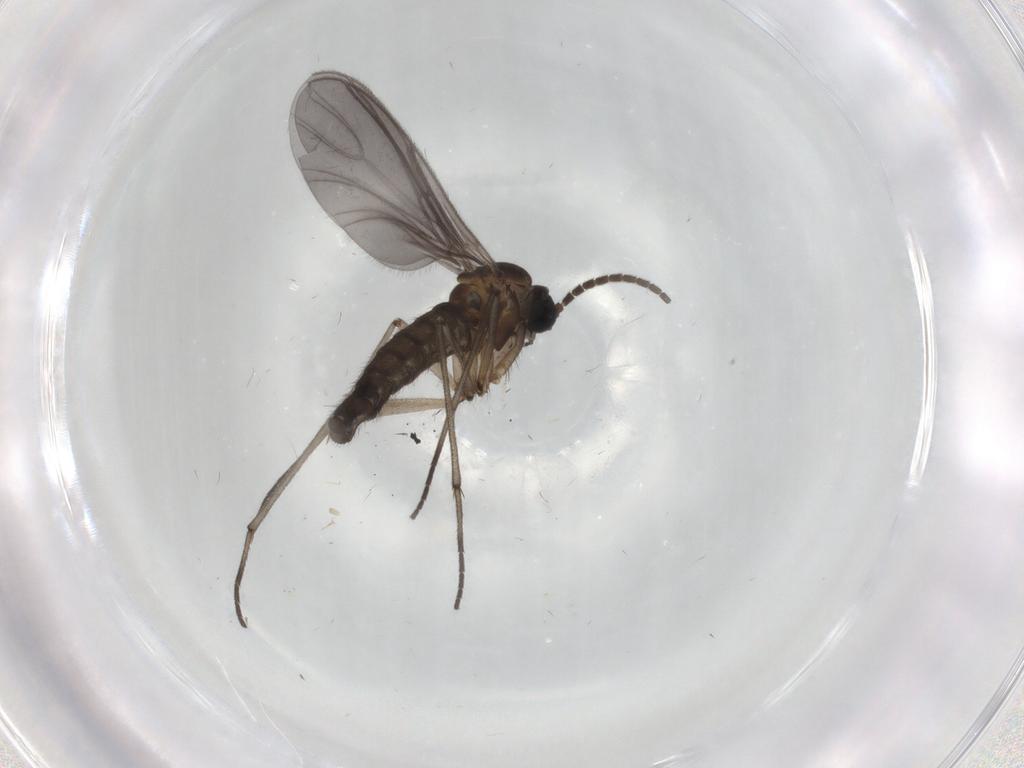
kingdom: Animalia
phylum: Arthropoda
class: Insecta
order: Diptera
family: Chironomidae
